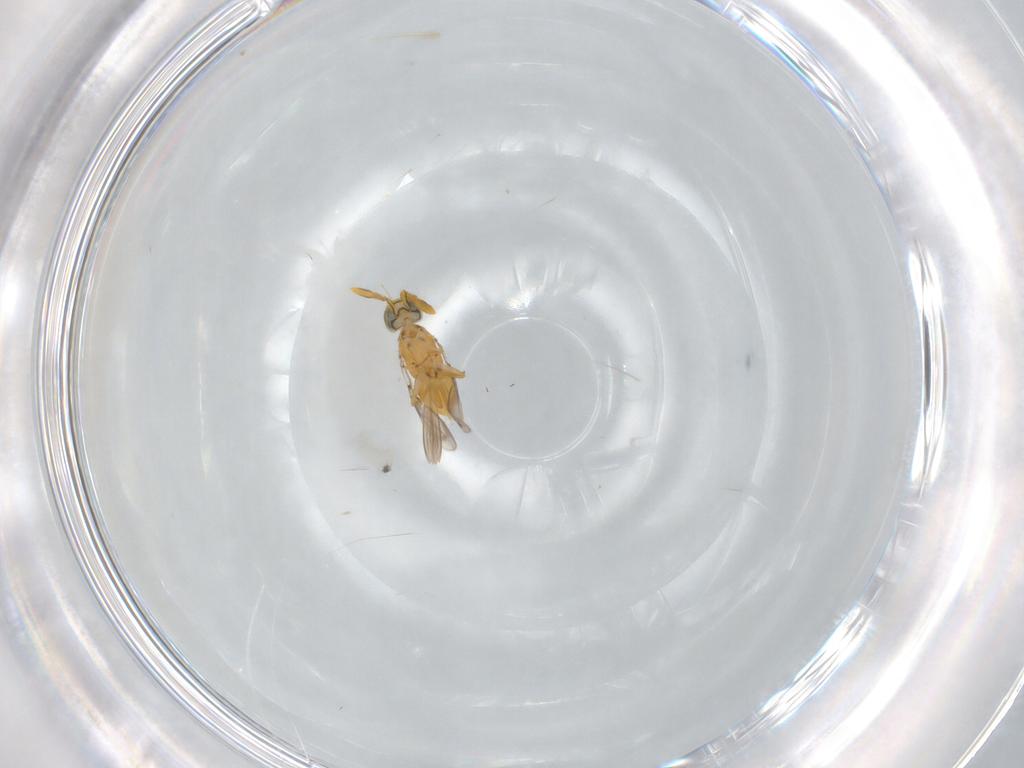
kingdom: Animalia
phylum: Arthropoda
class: Insecta
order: Hymenoptera
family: Encyrtidae
